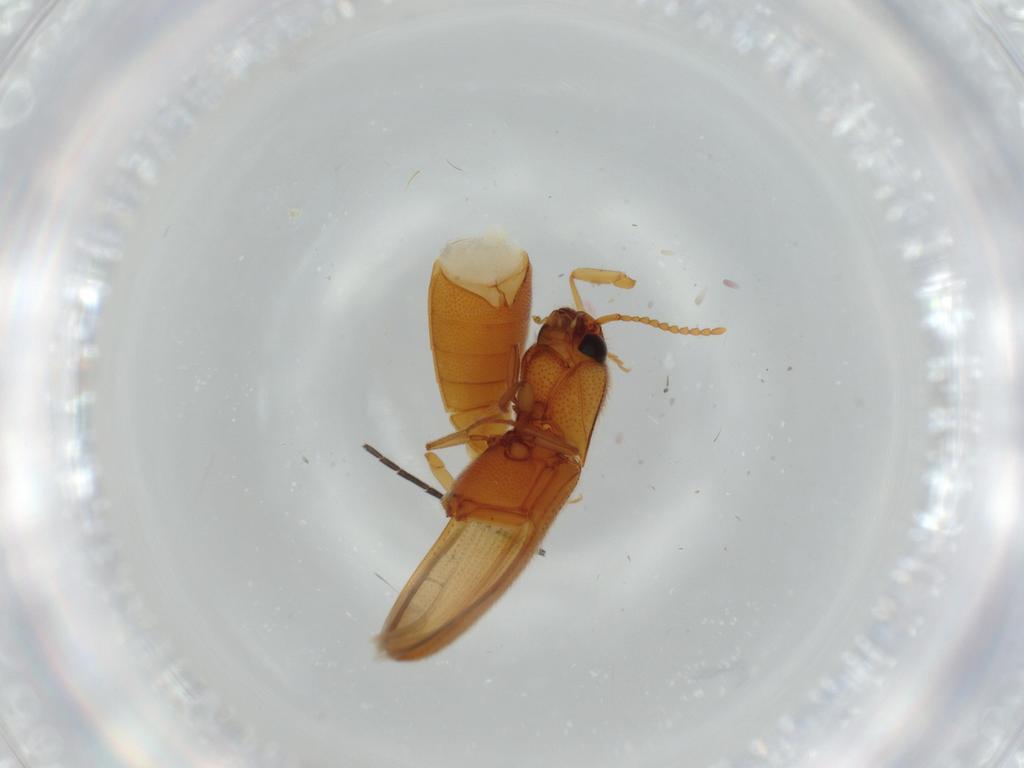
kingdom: Animalia
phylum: Arthropoda
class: Insecta
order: Coleoptera
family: Elateridae
